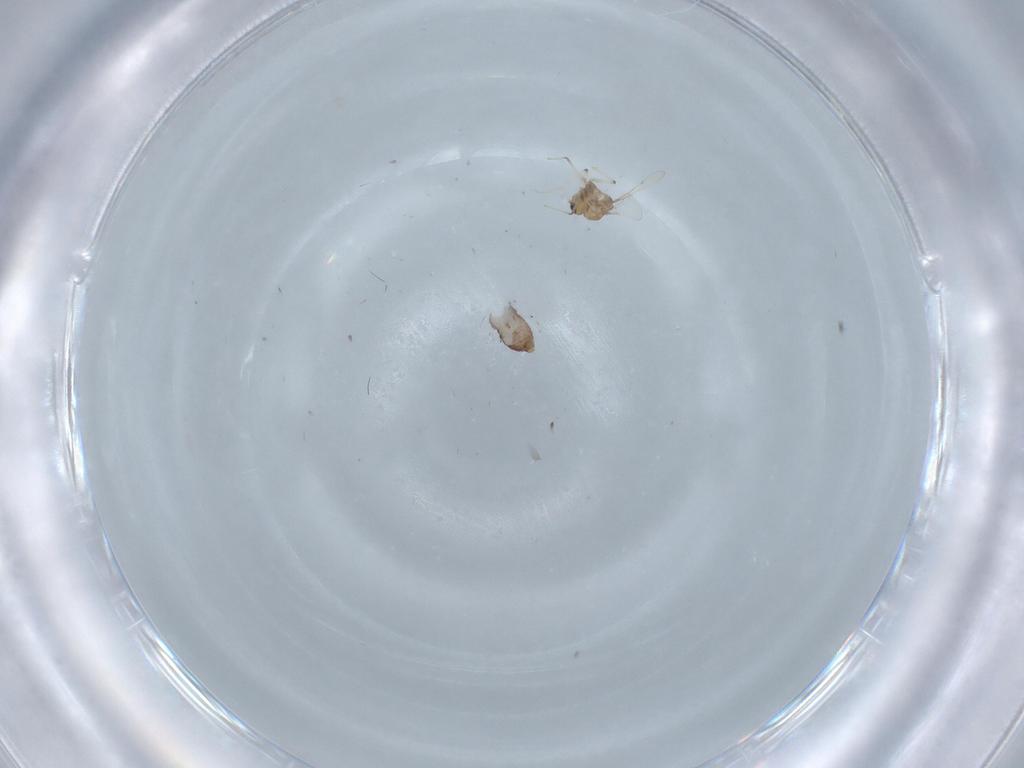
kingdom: Animalia
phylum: Arthropoda
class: Insecta
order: Diptera
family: Chironomidae
